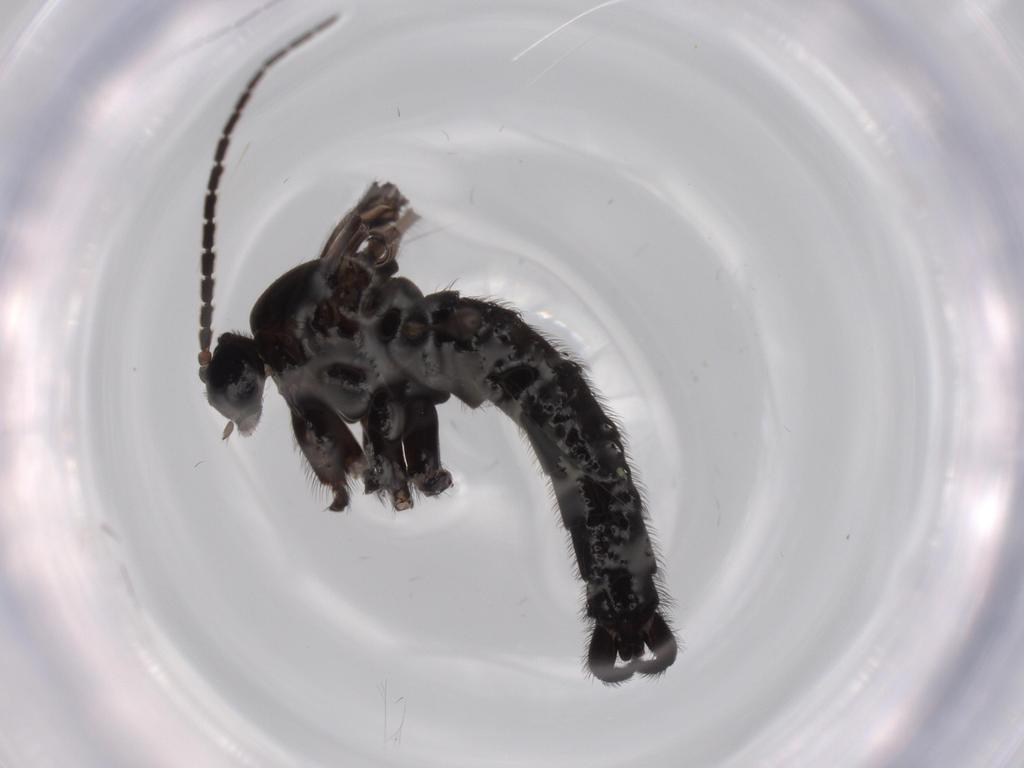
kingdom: Animalia
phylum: Arthropoda
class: Insecta
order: Diptera
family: Sciaridae
